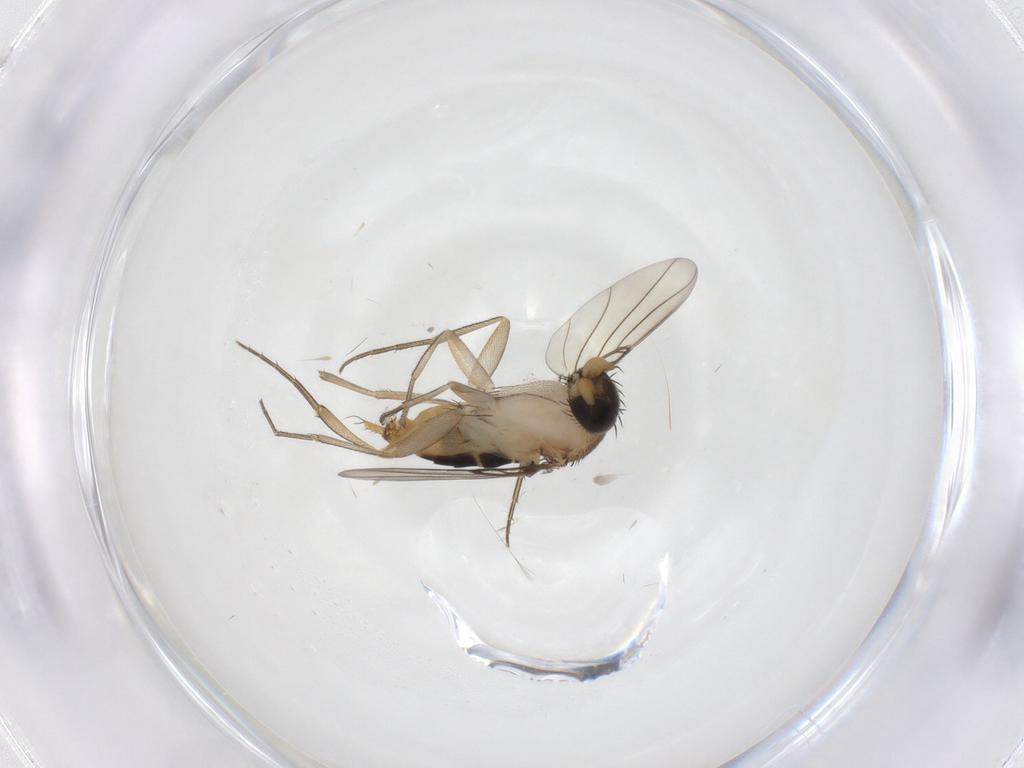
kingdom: Animalia
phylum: Arthropoda
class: Insecta
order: Diptera
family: Phoridae
